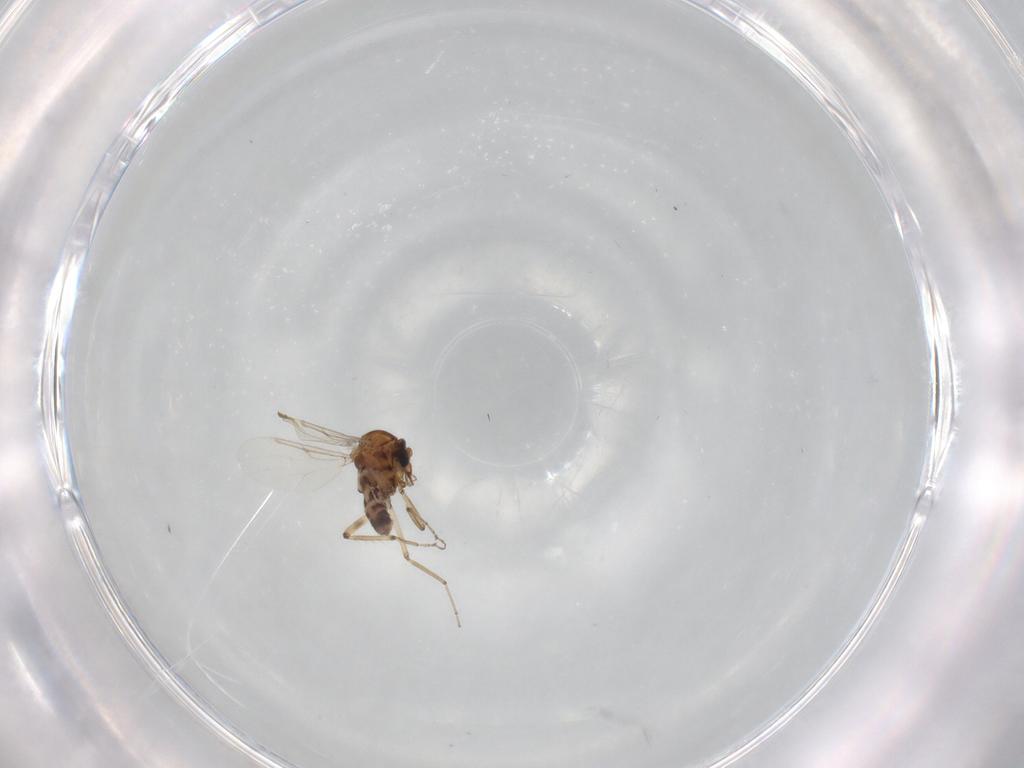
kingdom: Animalia
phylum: Arthropoda
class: Insecta
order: Diptera
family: Ceratopogonidae
